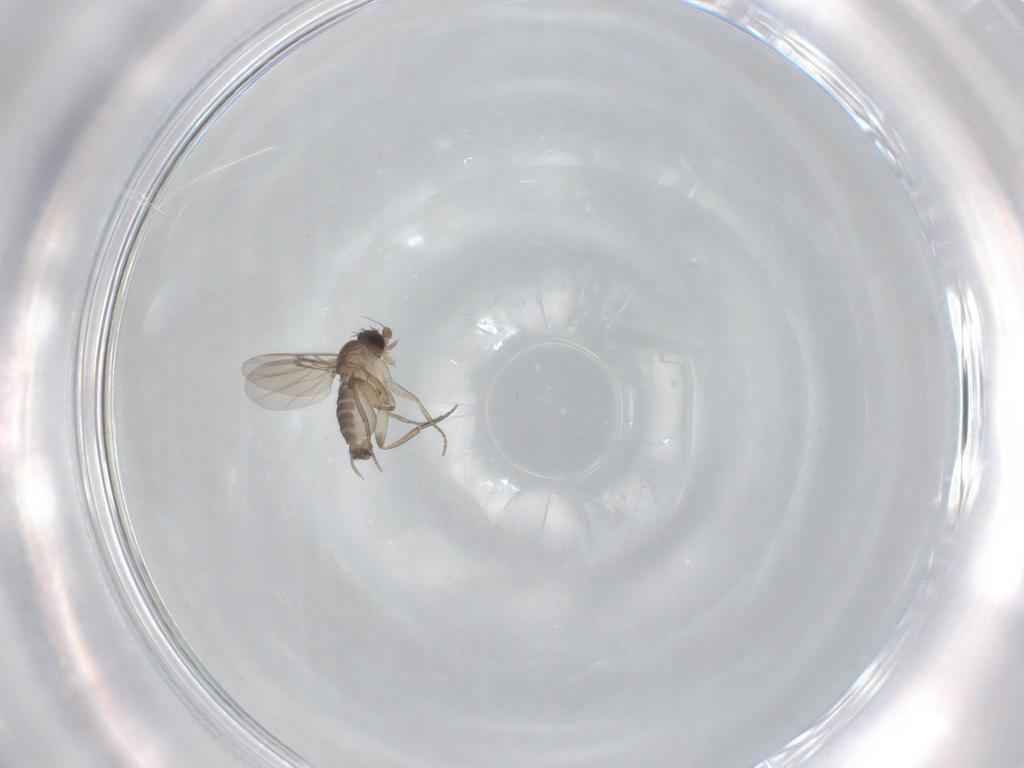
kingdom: Animalia
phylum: Arthropoda
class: Insecta
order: Diptera
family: Phoridae
